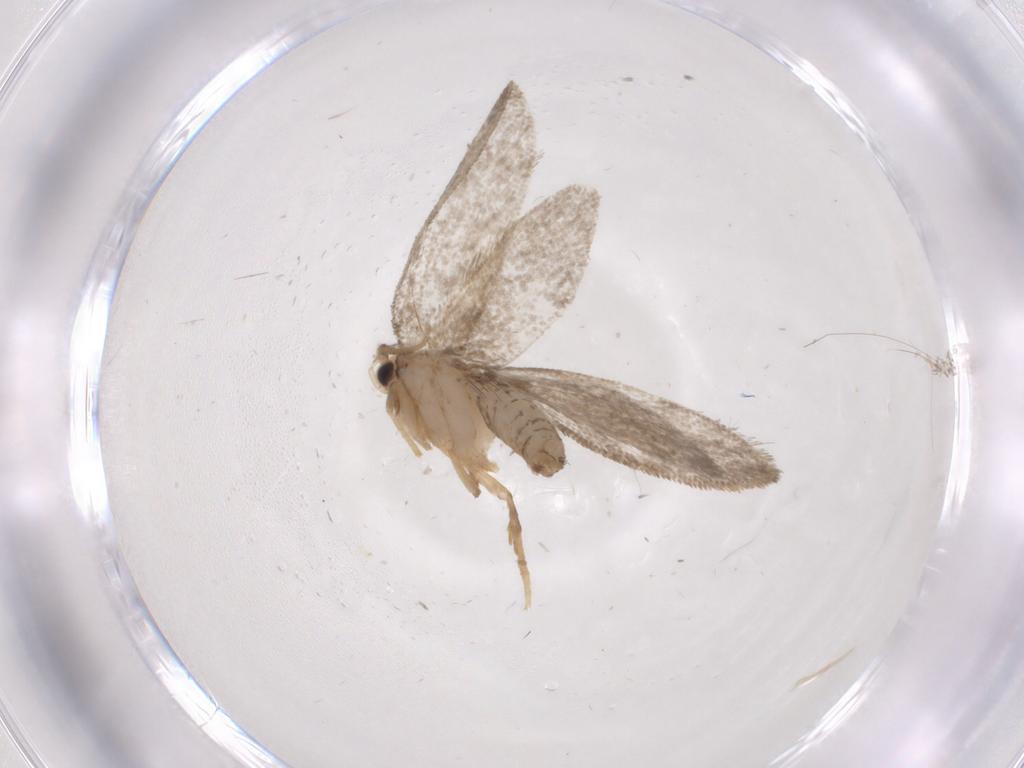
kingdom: Animalia
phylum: Arthropoda
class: Insecta
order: Lepidoptera
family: Psychidae
